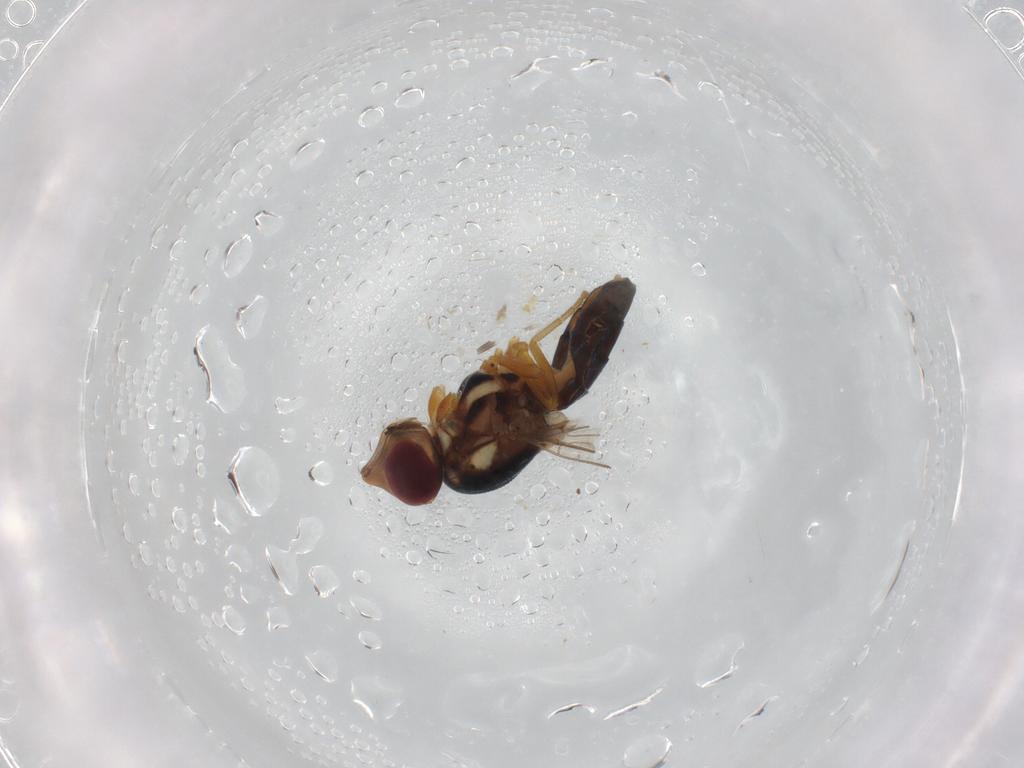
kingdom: Animalia
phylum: Arthropoda
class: Insecta
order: Diptera
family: Chloropidae
